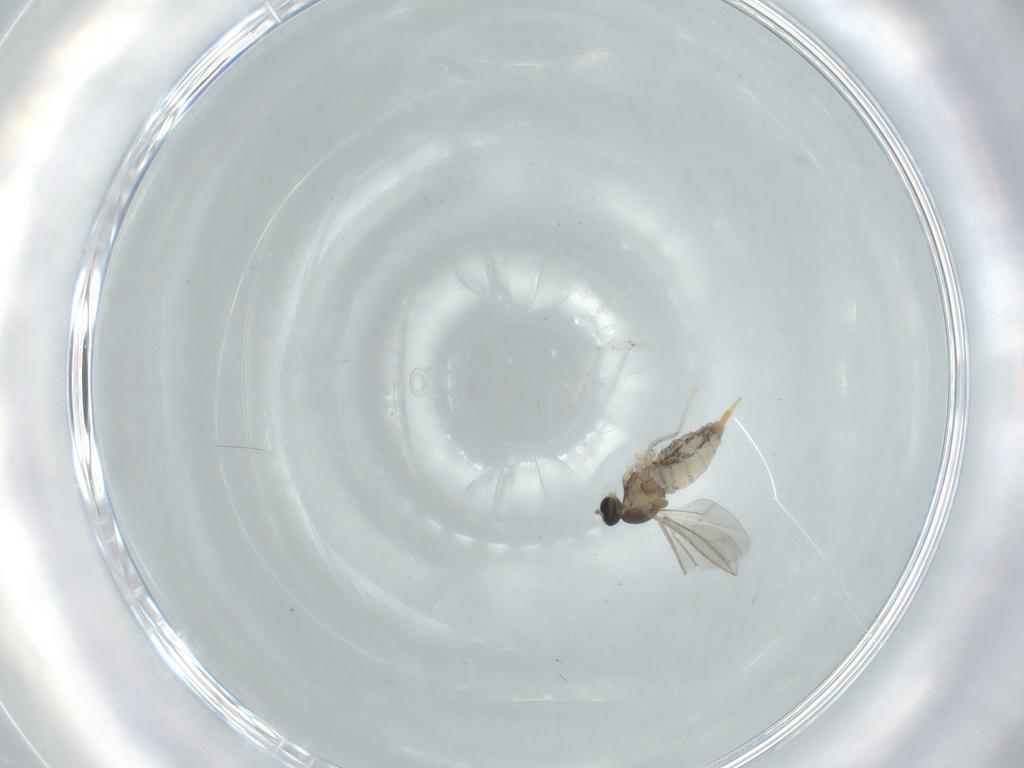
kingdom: Animalia
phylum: Arthropoda
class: Insecta
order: Diptera
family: Cecidomyiidae
